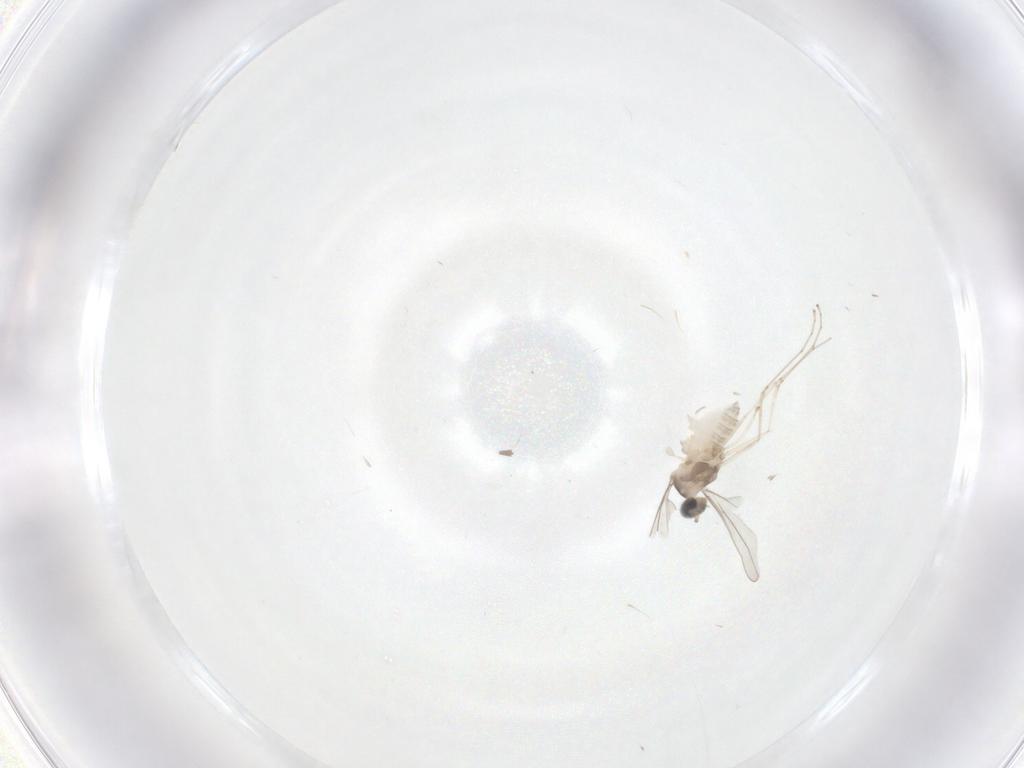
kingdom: Animalia
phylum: Arthropoda
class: Insecta
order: Diptera
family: Cecidomyiidae
